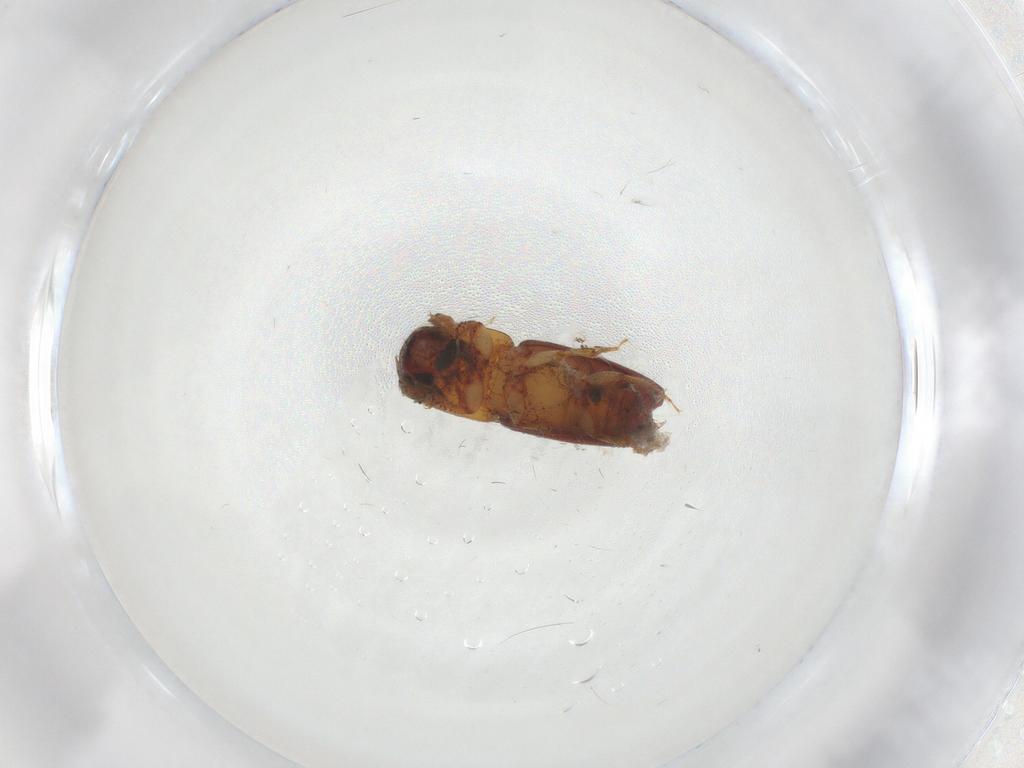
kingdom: Animalia
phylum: Arthropoda
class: Insecta
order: Coleoptera
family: Curculionidae
